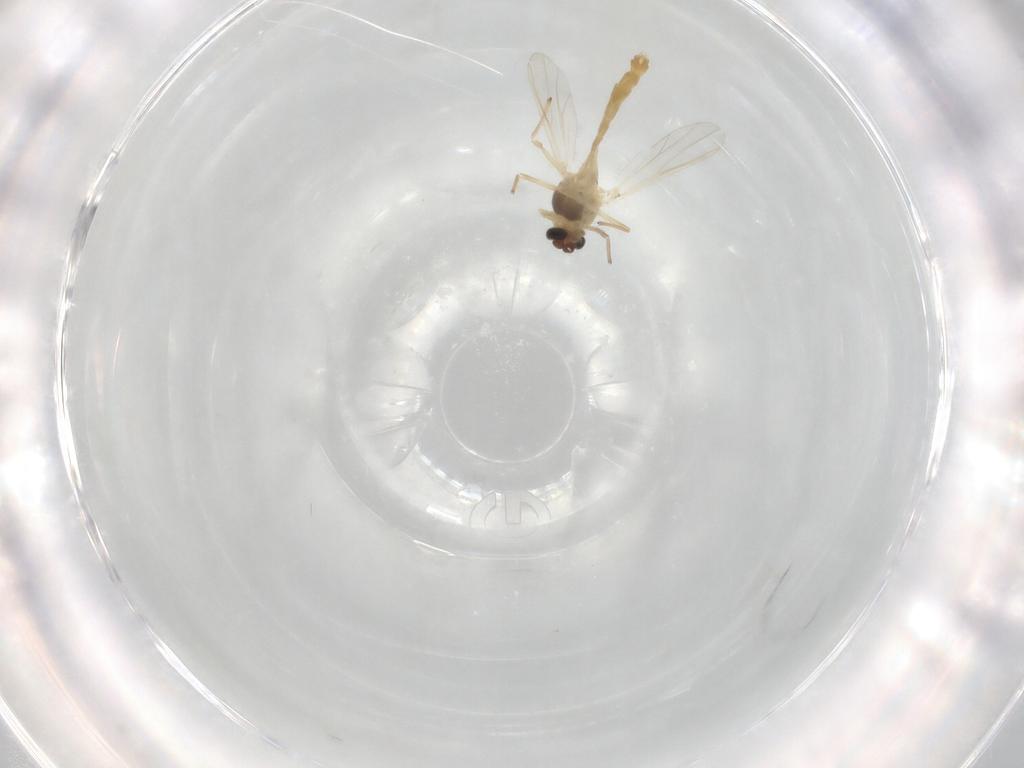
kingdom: Animalia
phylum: Arthropoda
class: Insecta
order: Diptera
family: Chironomidae
